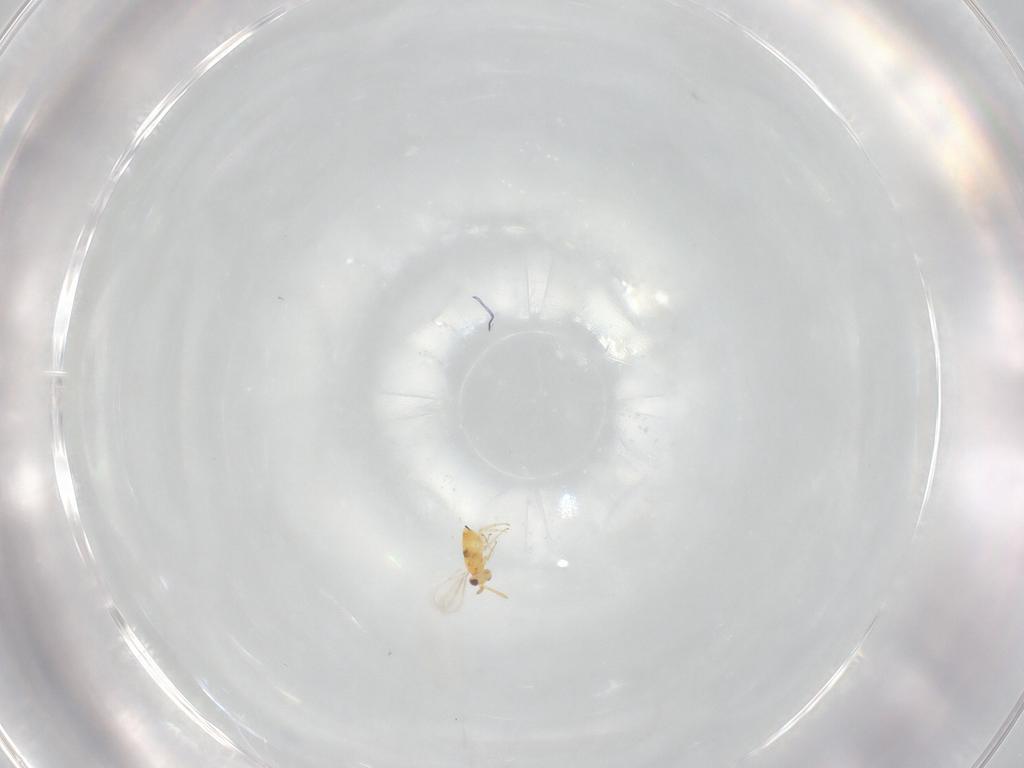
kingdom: Animalia
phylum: Arthropoda
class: Insecta
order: Hymenoptera
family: Aphelinidae
